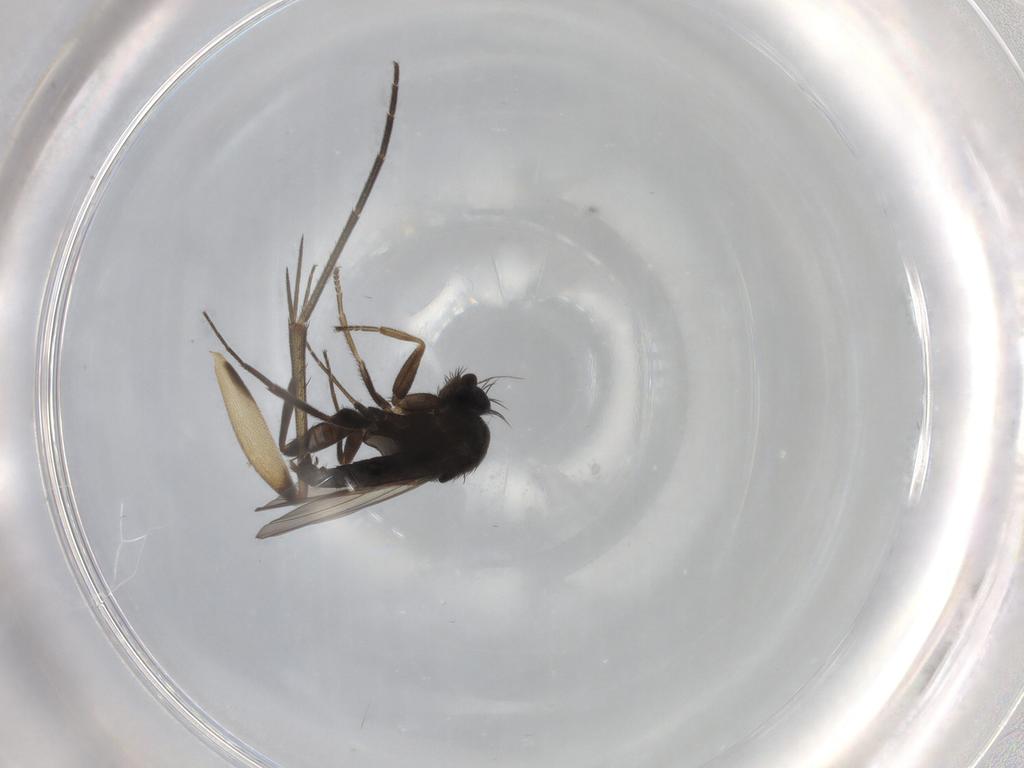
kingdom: Animalia
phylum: Arthropoda
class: Insecta
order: Diptera
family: Phoridae
